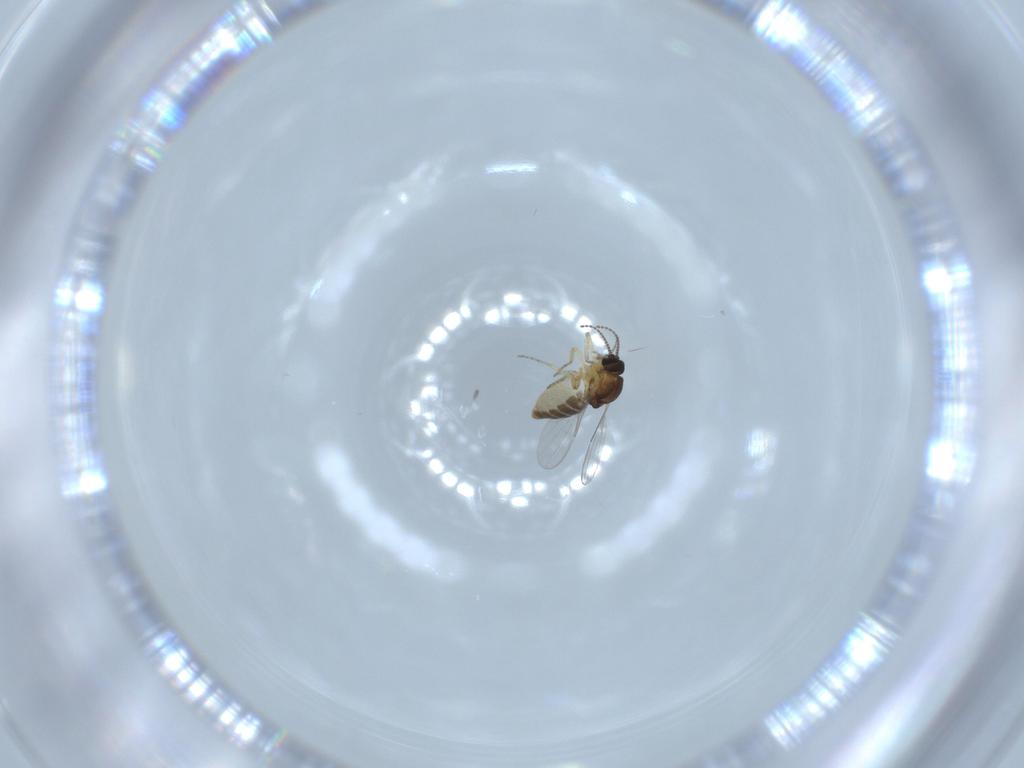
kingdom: Animalia
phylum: Arthropoda
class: Insecta
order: Diptera
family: Ceratopogonidae
